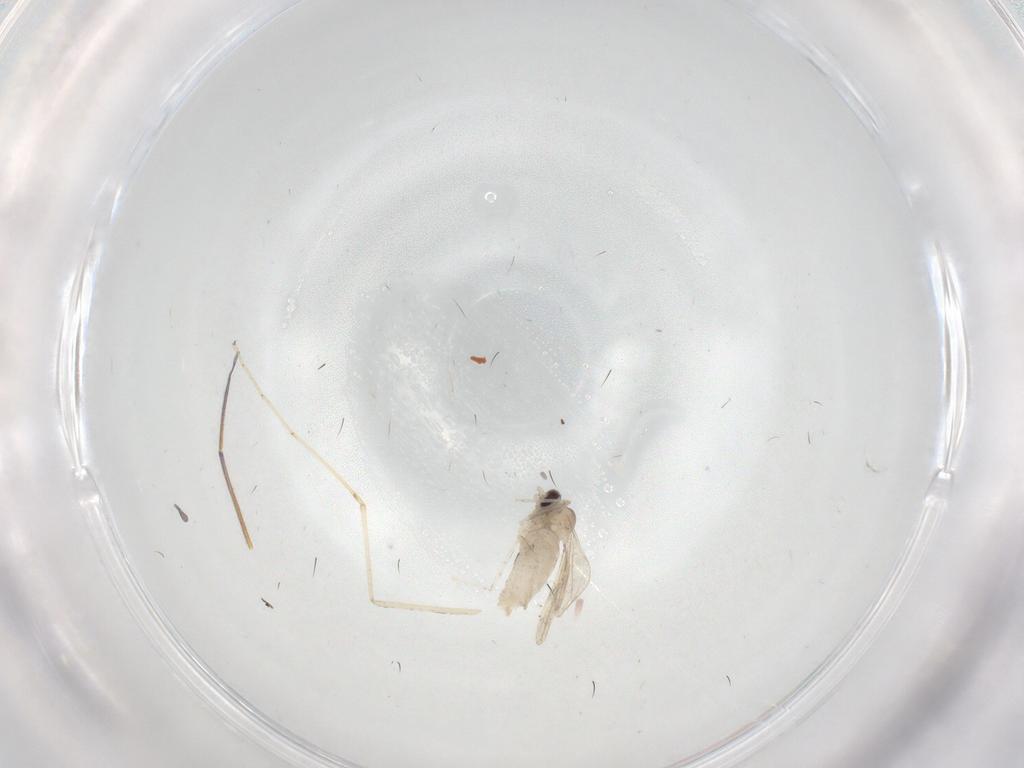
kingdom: Animalia
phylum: Arthropoda
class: Insecta
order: Diptera
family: Cecidomyiidae
